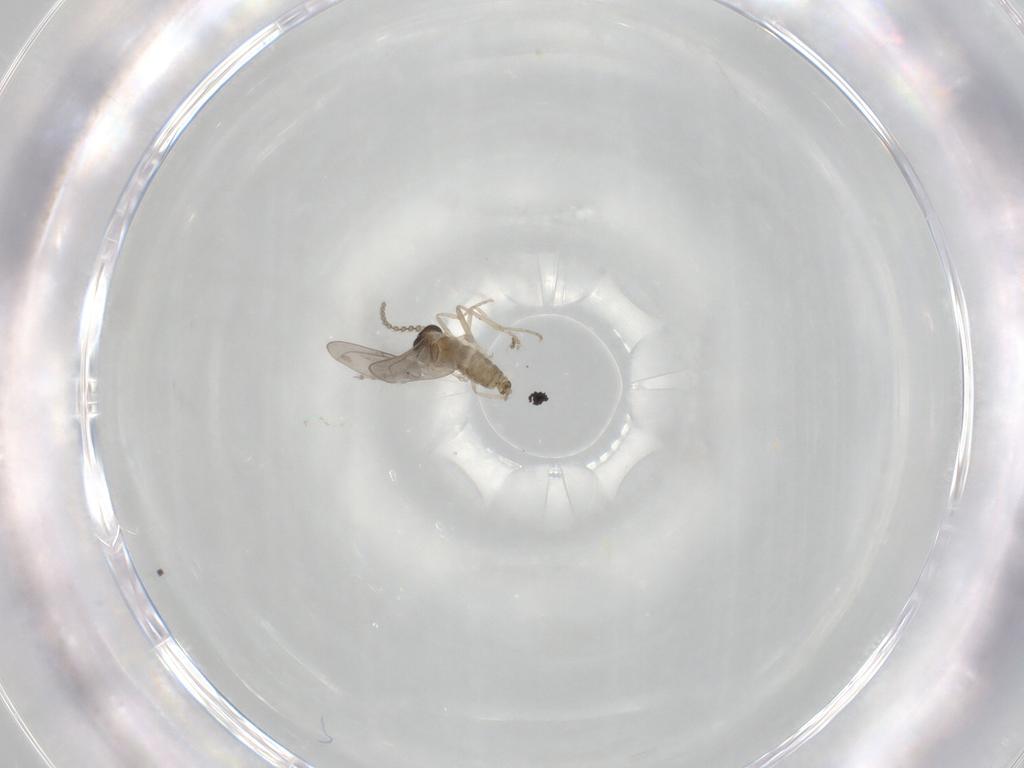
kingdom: Animalia
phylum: Arthropoda
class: Insecta
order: Diptera
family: Cecidomyiidae
